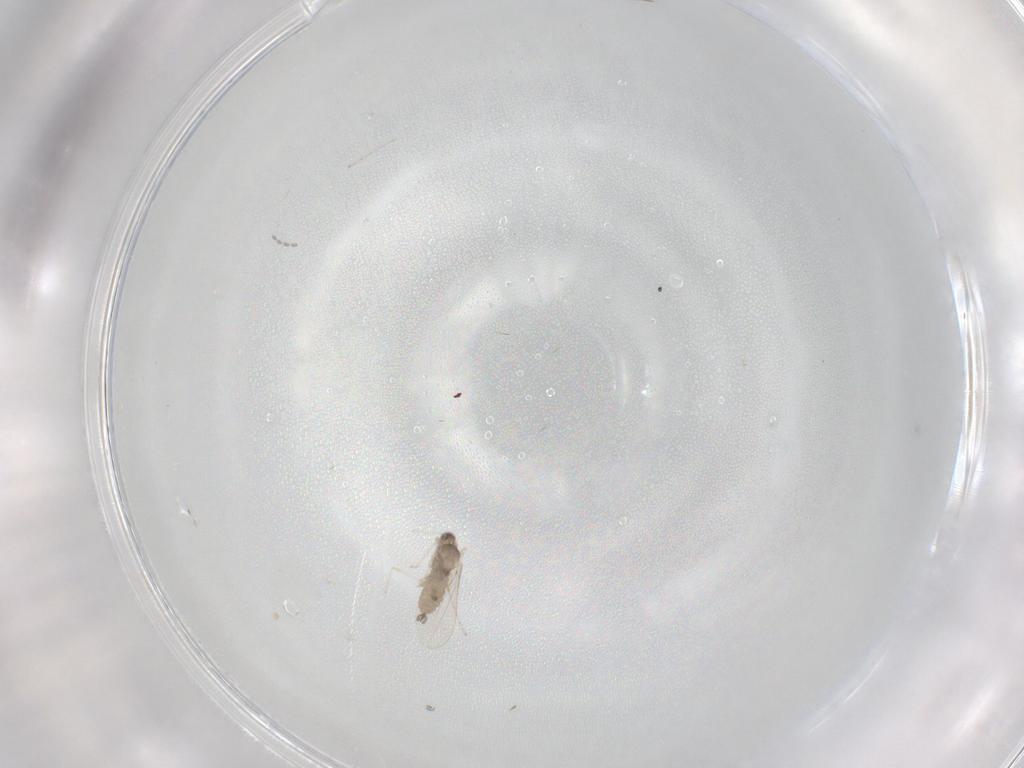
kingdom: Animalia
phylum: Arthropoda
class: Insecta
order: Diptera
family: Cecidomyiidae
